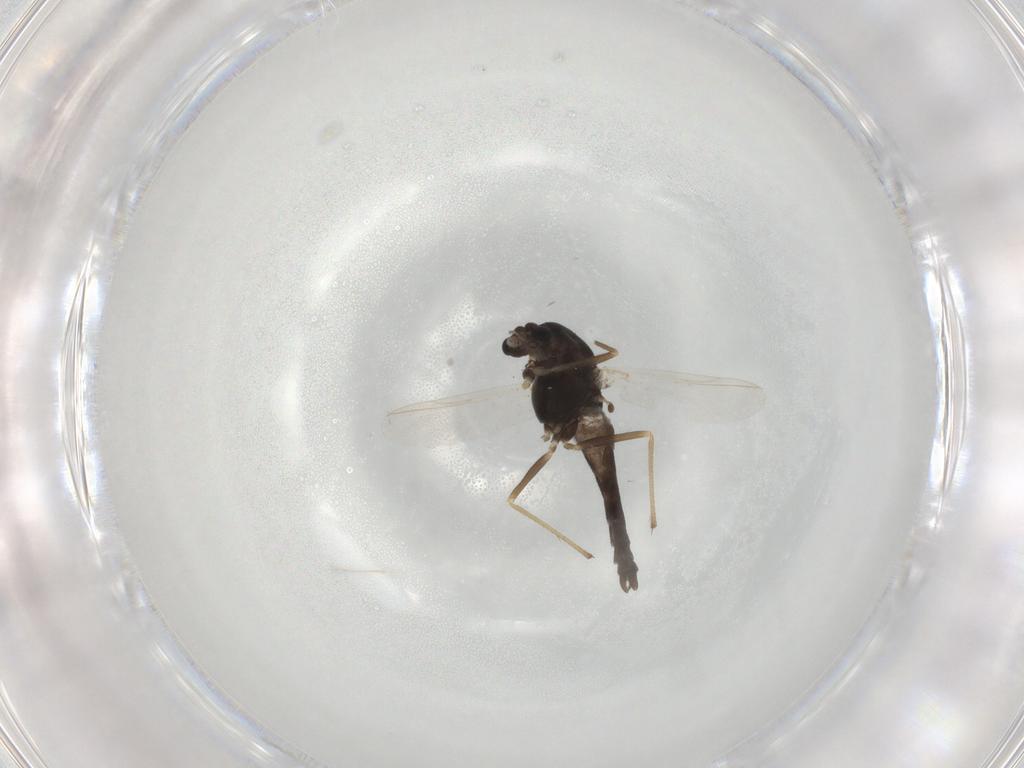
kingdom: Animalia
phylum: Arthropoda
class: Insecta
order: Diptera
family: Chironomidae
